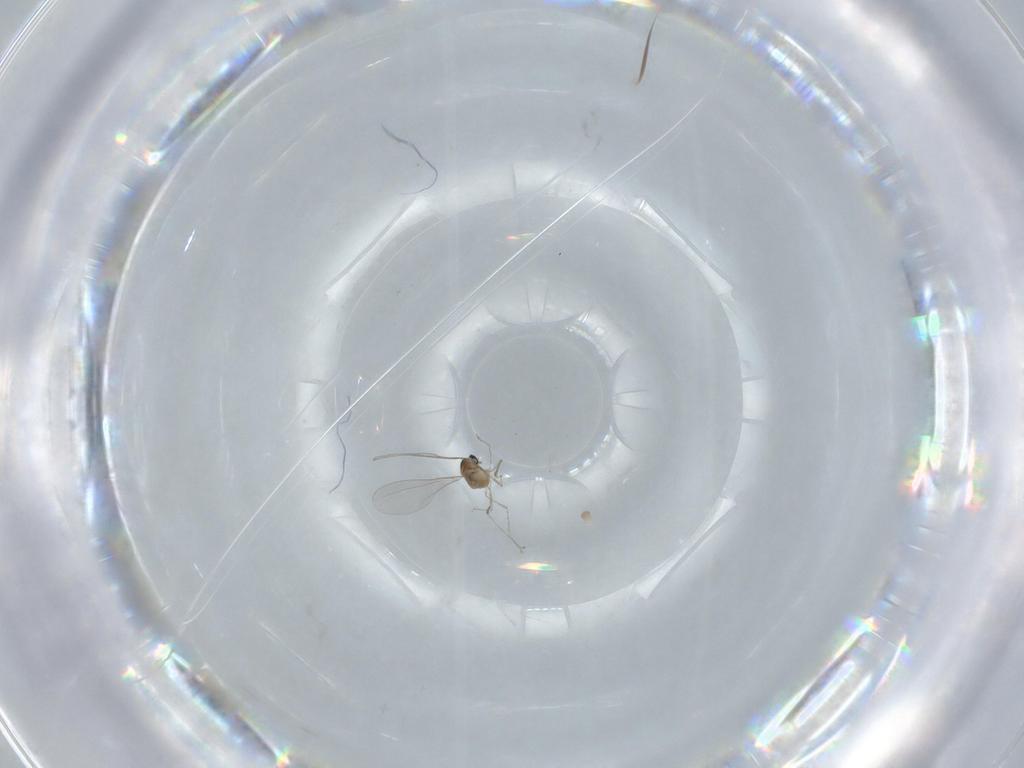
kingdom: Animalia
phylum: Arthropoda
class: Insecta
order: Diptera
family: Cecidomyiidae
